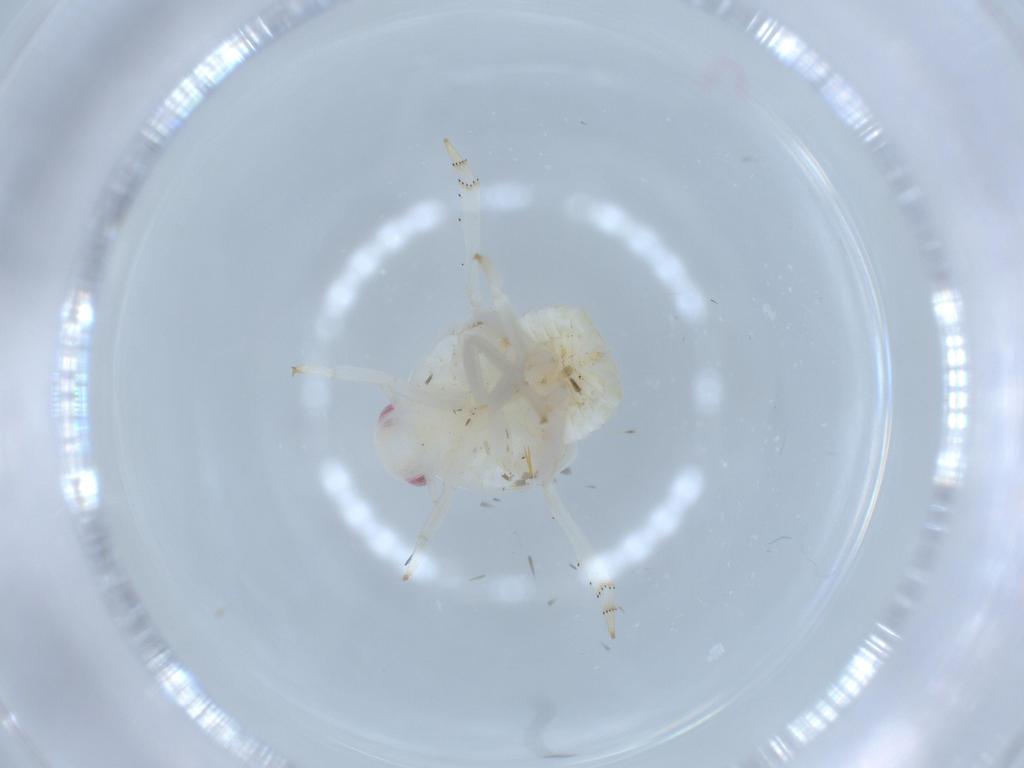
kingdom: Animalia
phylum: Arthropoda
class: Insecta
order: Hemiptera
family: Flatidae
